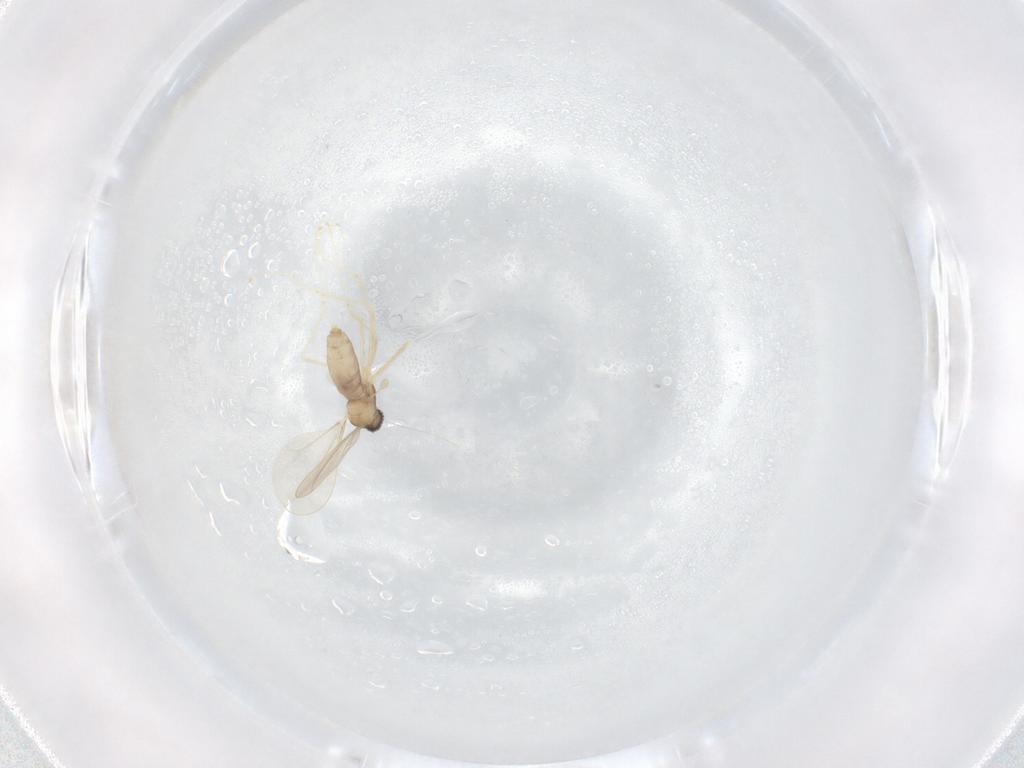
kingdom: Animalia
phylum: Arthropoda
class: Insecta
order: Diptera
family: Cecidomyiidae
